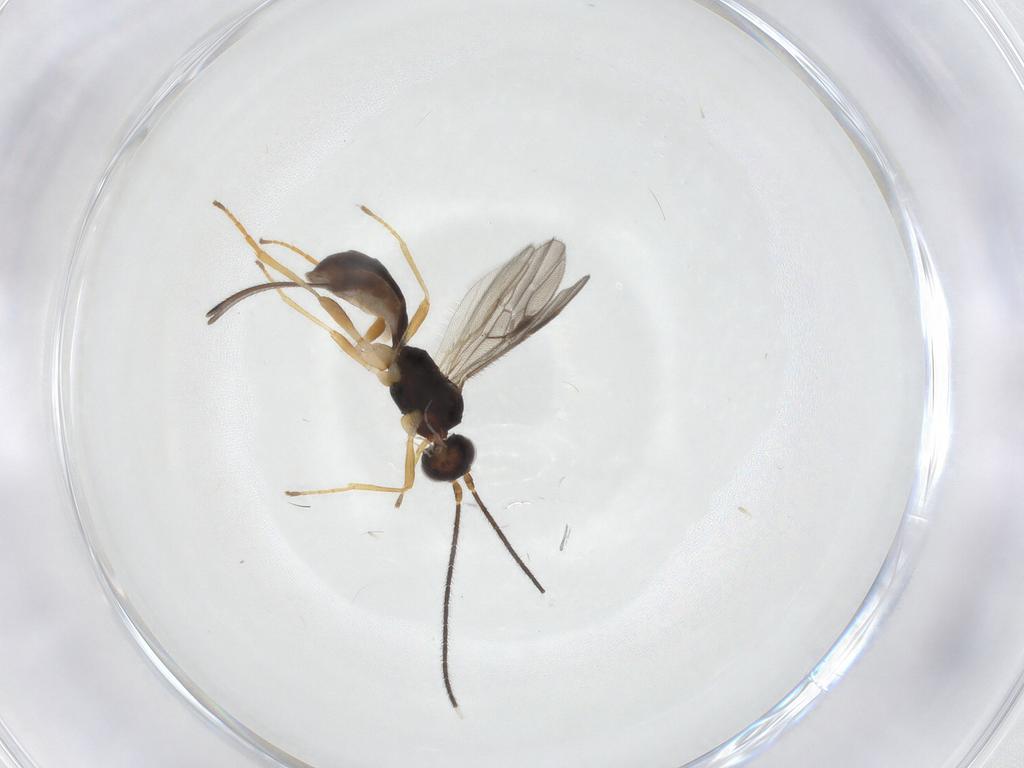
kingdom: Animalia
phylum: Arthropoda
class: Insecta
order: Hymenoptera
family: Braconidae
